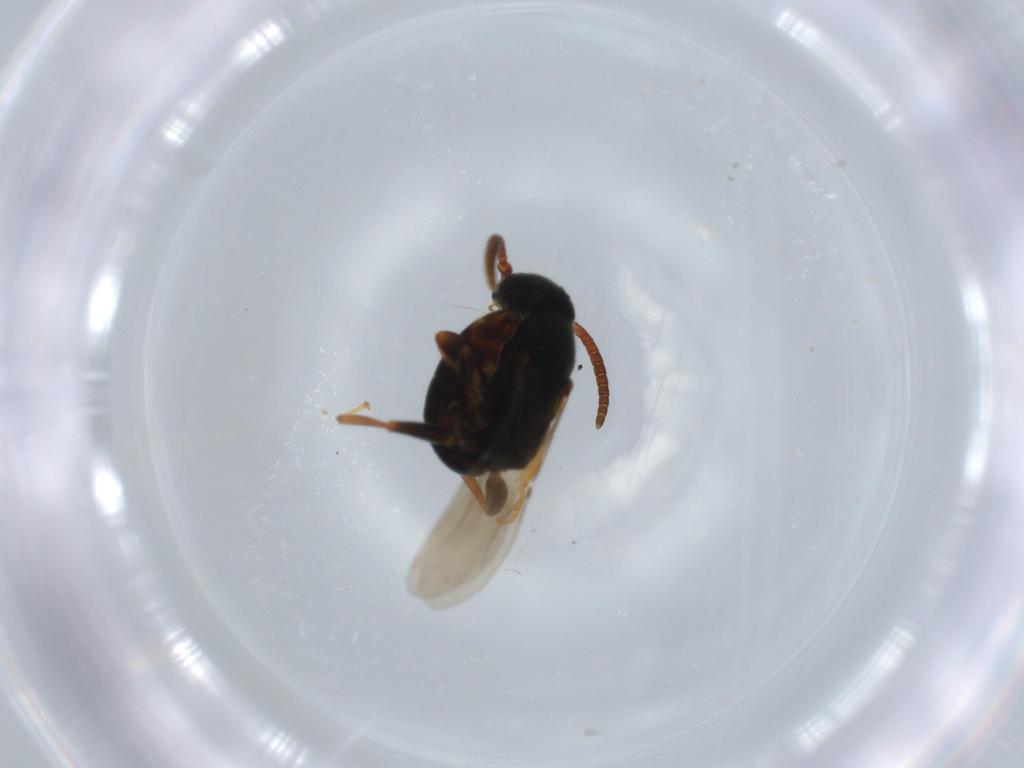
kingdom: Animalia
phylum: Arthropoda
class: Insecta
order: Hymenoptera
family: Bethylidae
